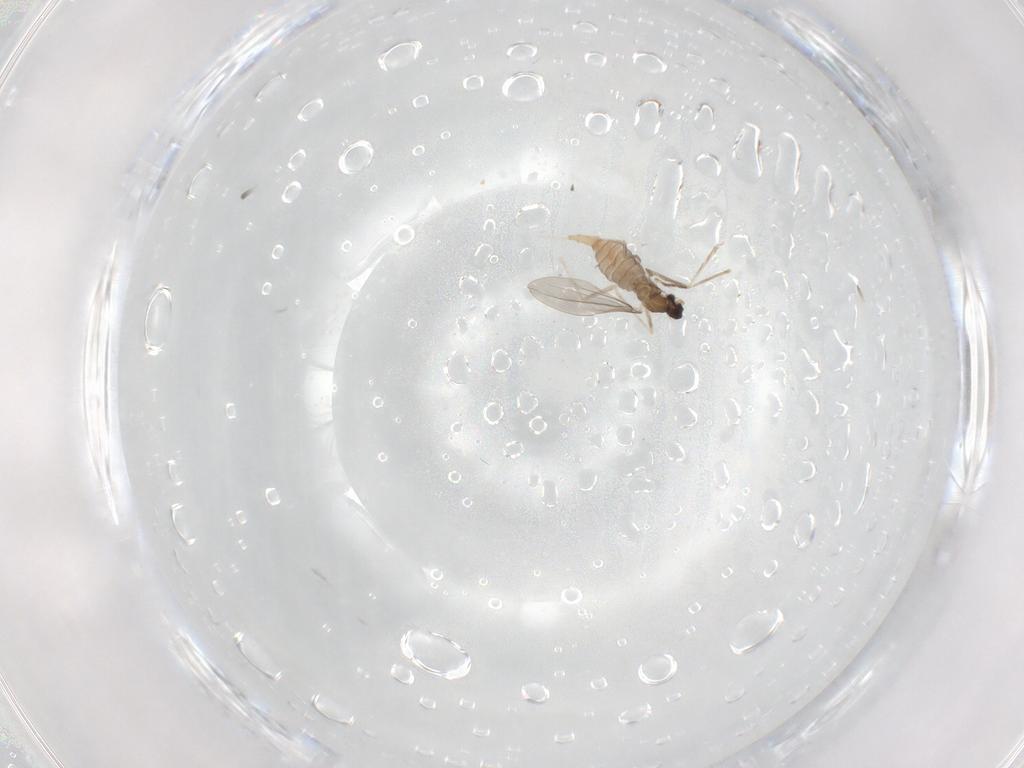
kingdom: Animalia
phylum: Arthropoda
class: Insecta
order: Diptera
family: Cecidomyiidae
